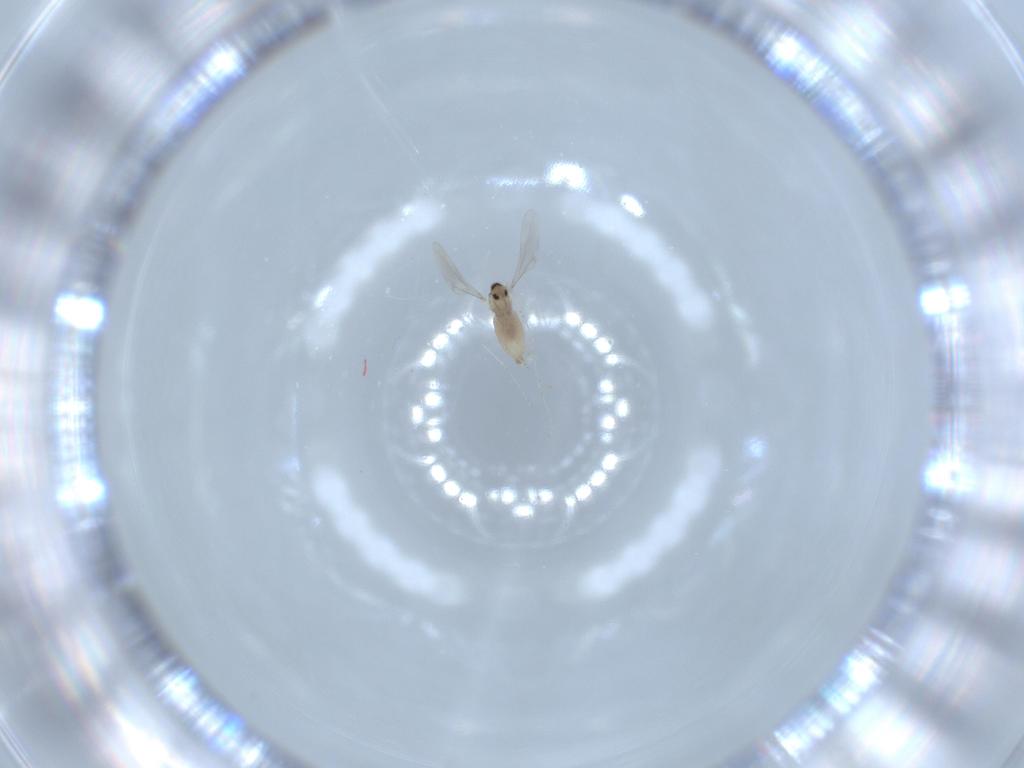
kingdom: Animalia
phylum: Arthropoda
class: Insecta
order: Diptera
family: Cecidomyiidae
